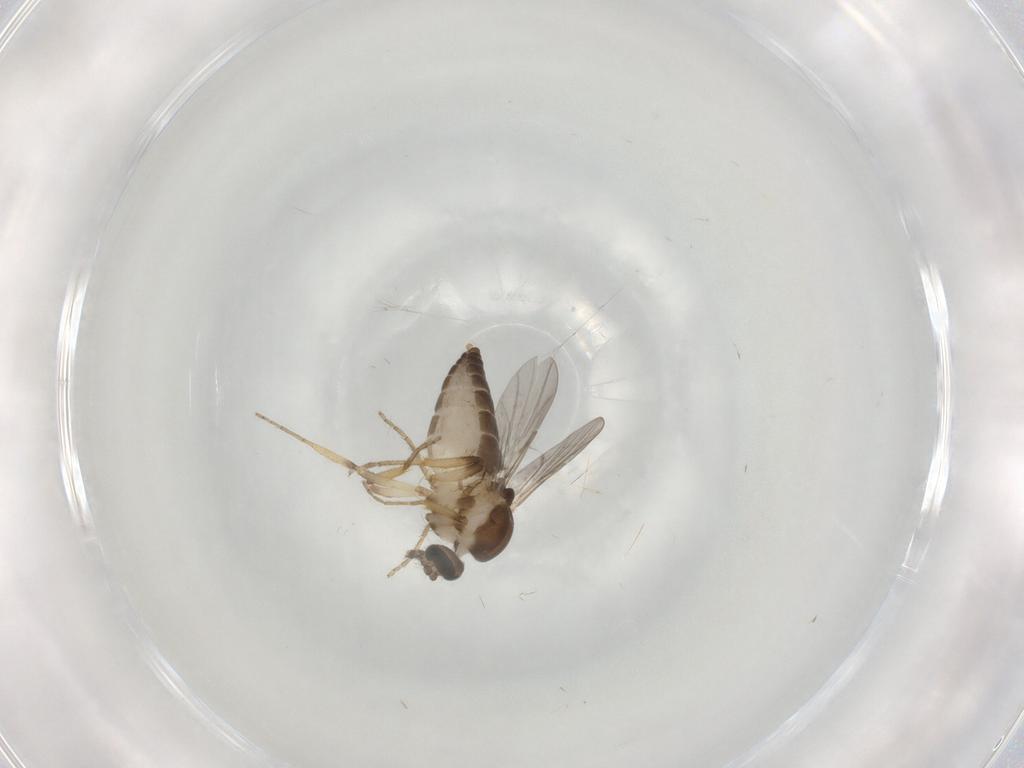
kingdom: Animalia
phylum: Arthropoda
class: Insecta
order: Diptera
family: Ceratopogonidae
